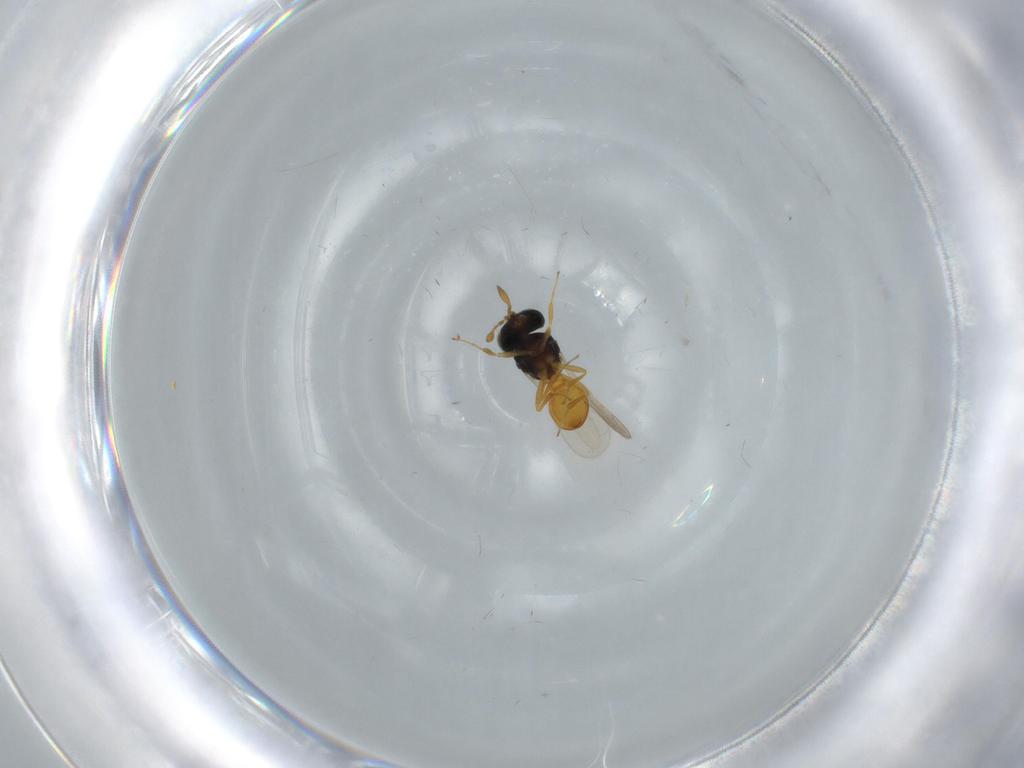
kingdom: Animalia
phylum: Arthropoda
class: Insecta
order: Hymenoptera
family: Scelionidae
